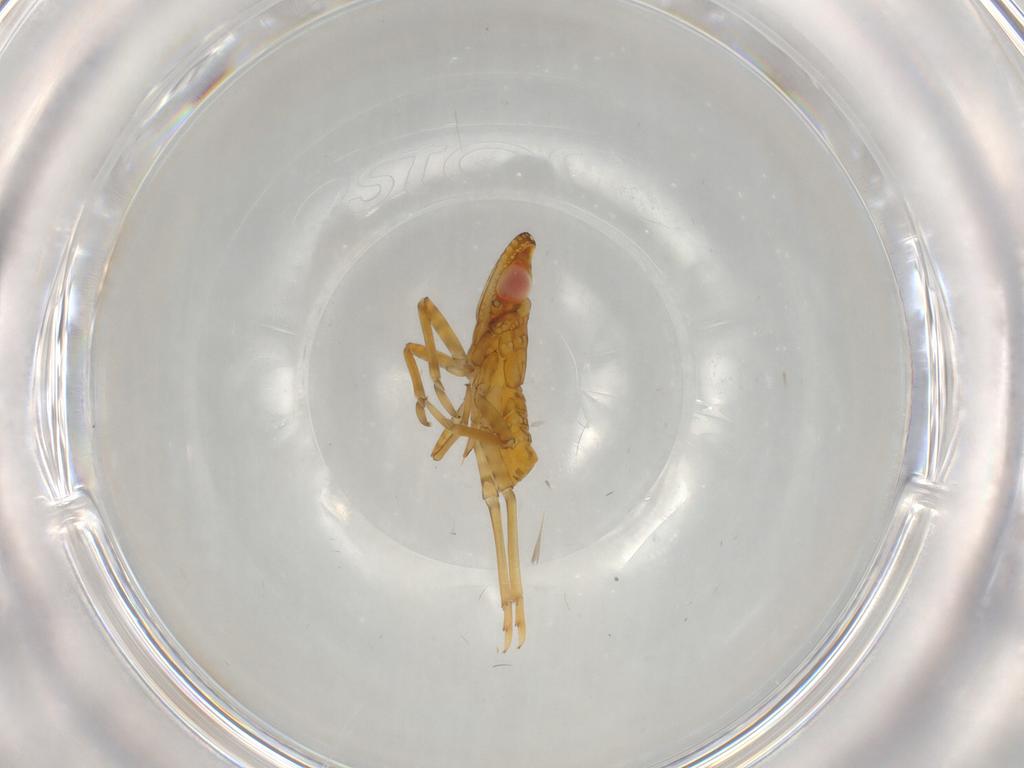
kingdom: Animalia
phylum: Arthropoda
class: Insecta
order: Hemiptera
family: Fulgoroidea_incertae_sedis
